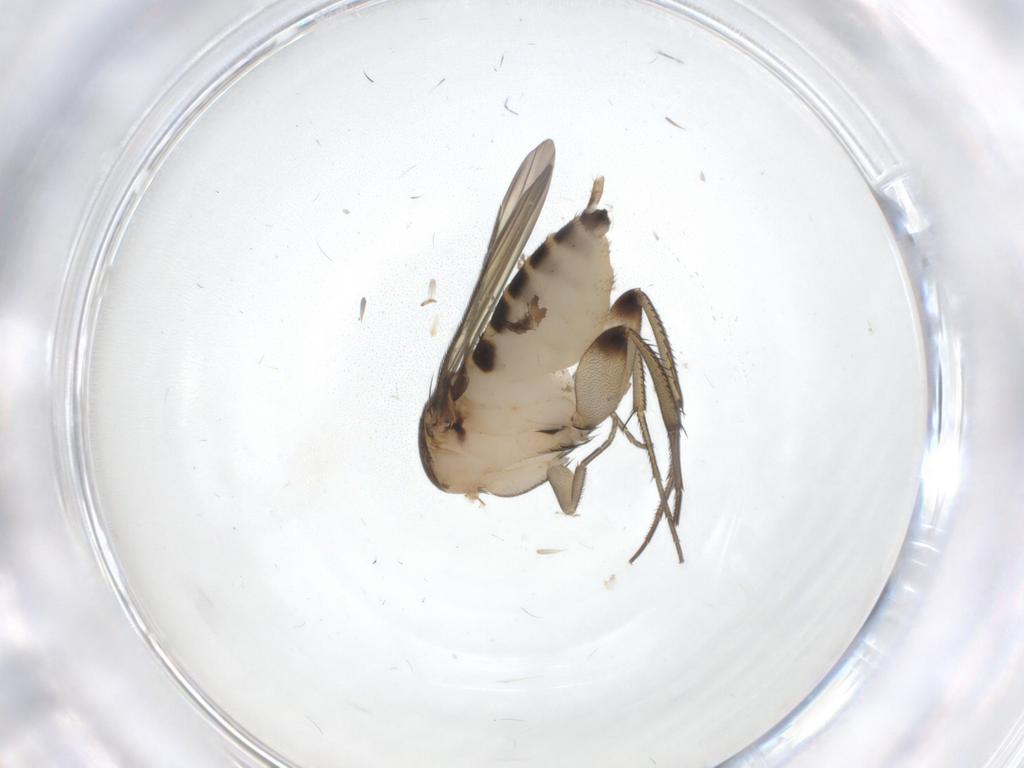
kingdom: Animalia
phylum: Arthropoda
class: Insecta
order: Diptera
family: Phoridae
